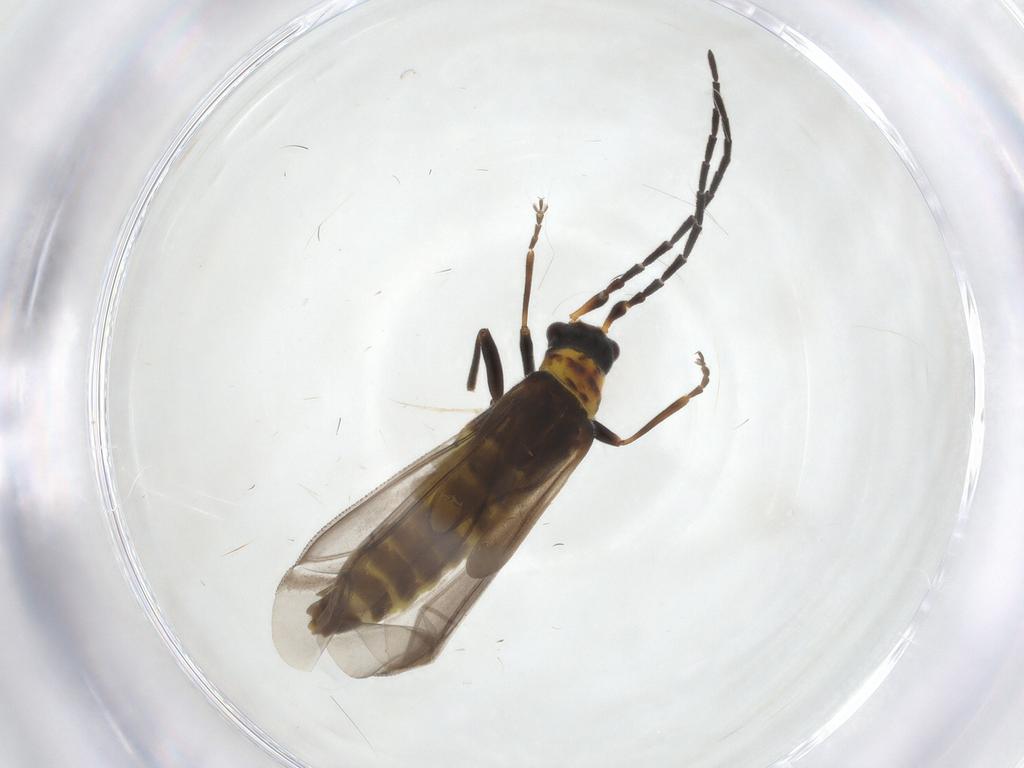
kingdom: Animalia
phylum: Arthropoda
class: Insecta
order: Coleoptera
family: Cantharidae
